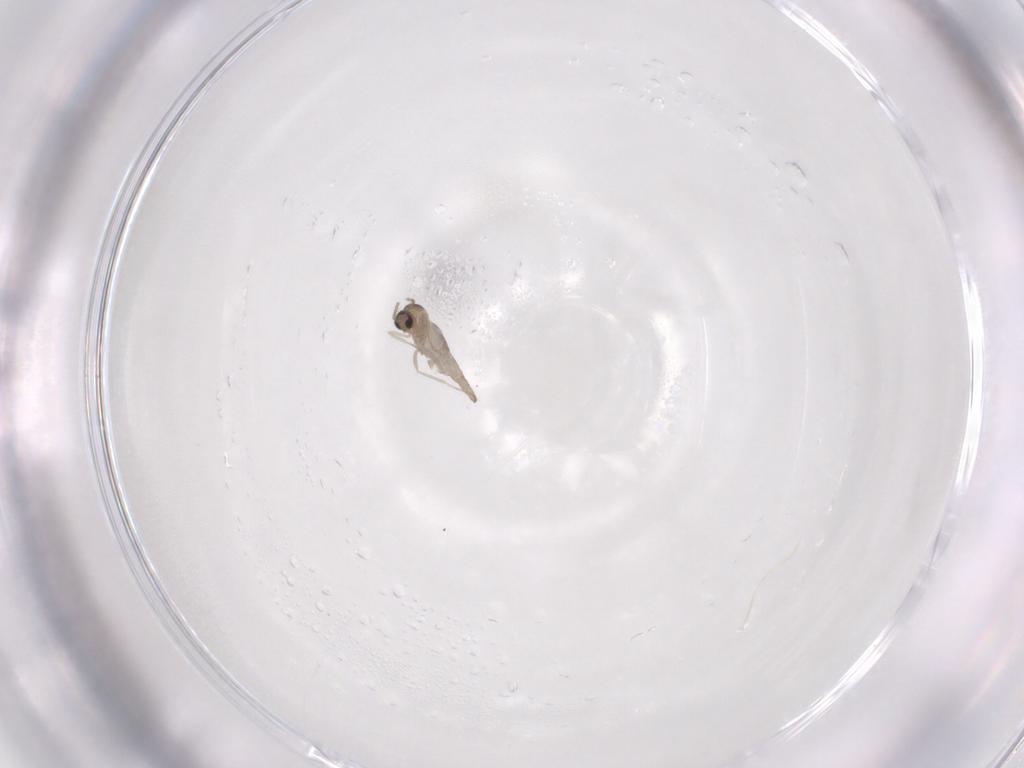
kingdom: Animalia
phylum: Arthropoda
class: Insecta
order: Diptera
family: Cecidomyiidae
